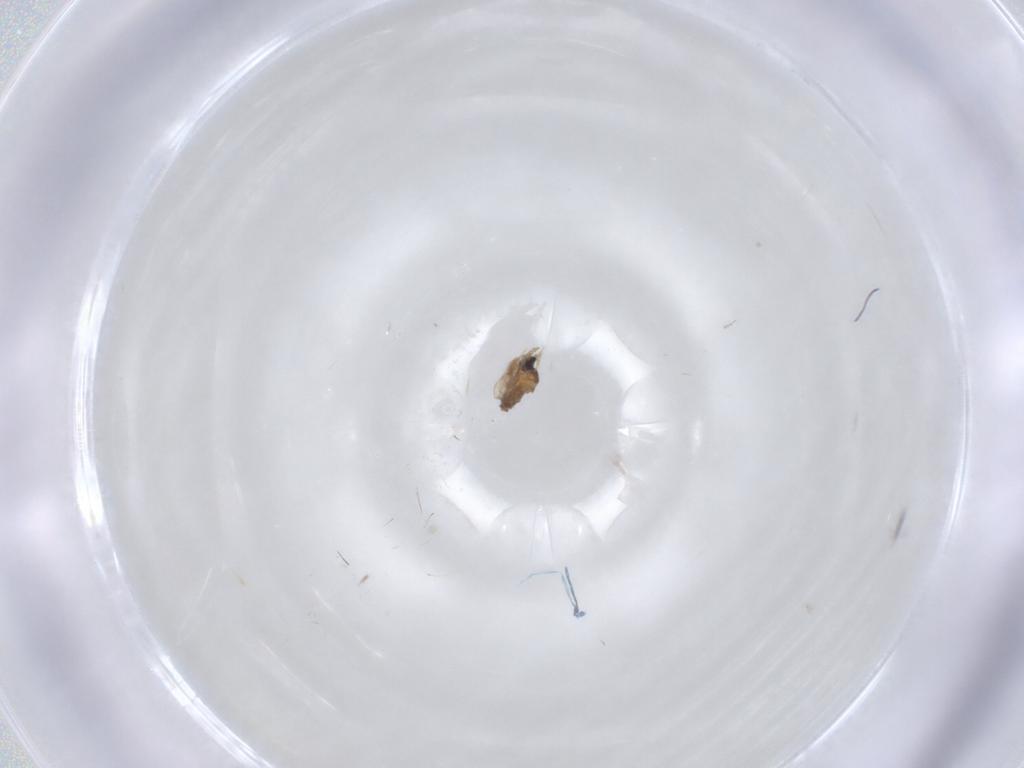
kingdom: Animalia
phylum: Arthropoda
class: Insecta
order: Diptera
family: Cecidomyiidae
